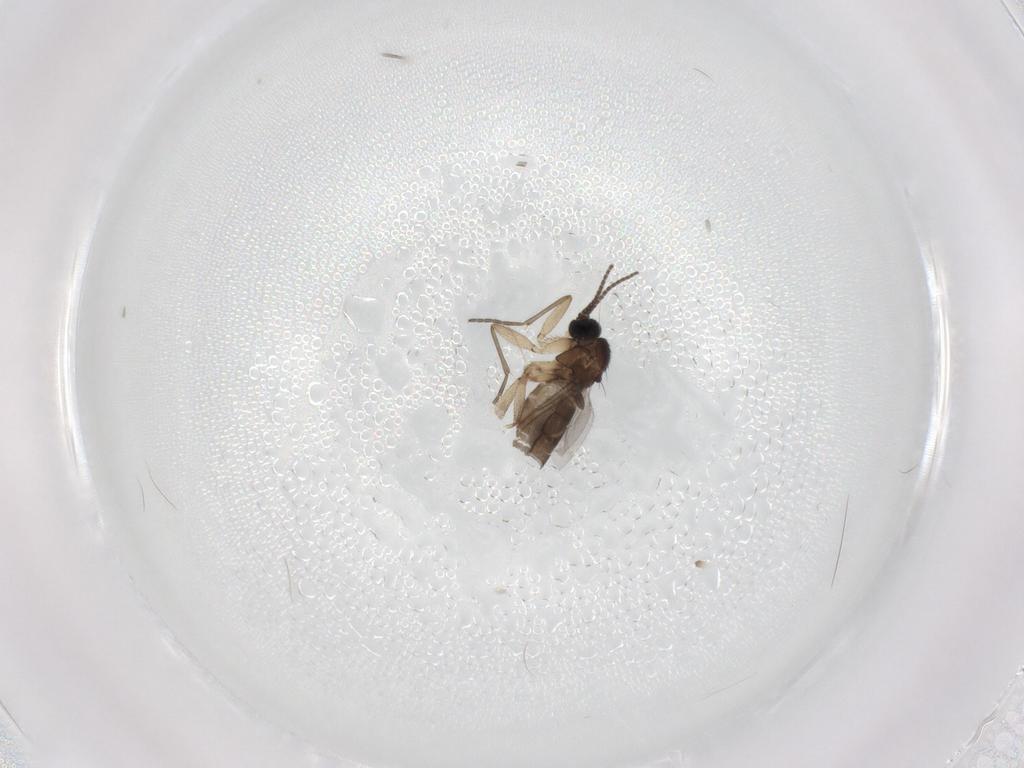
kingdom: Animalia
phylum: Arthropoda
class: Insecta
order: Diptera
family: Sciaridae
